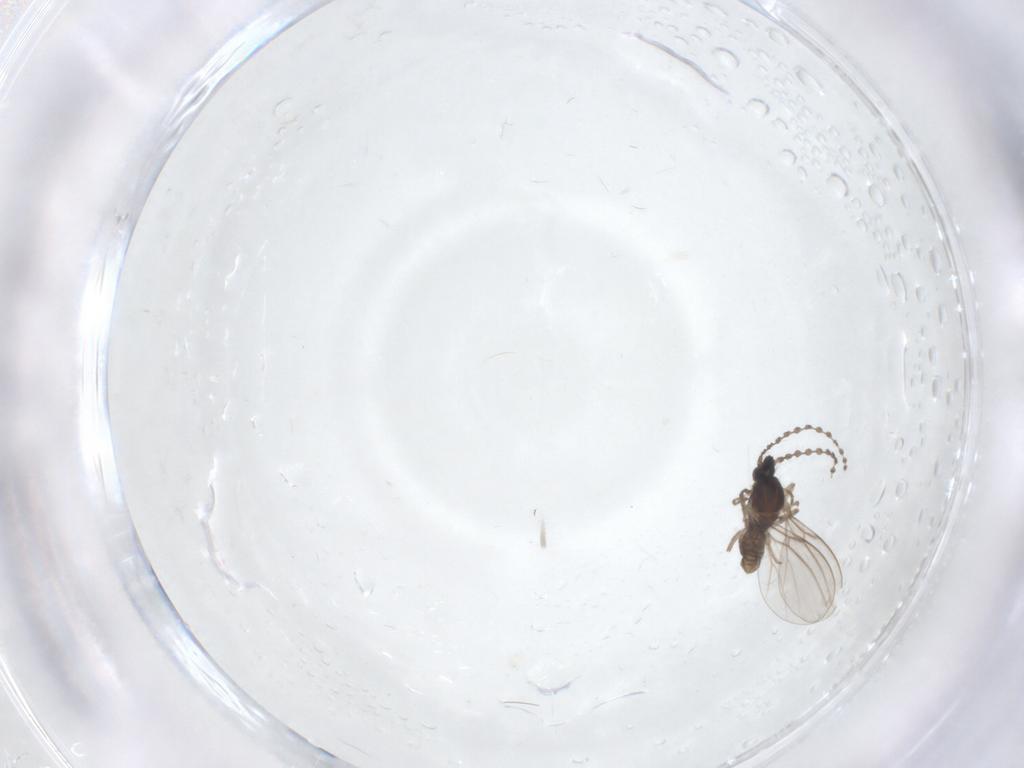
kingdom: Animalia
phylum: Arthropoda
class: Insecta
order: Diptera
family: Cecidomyiidae
